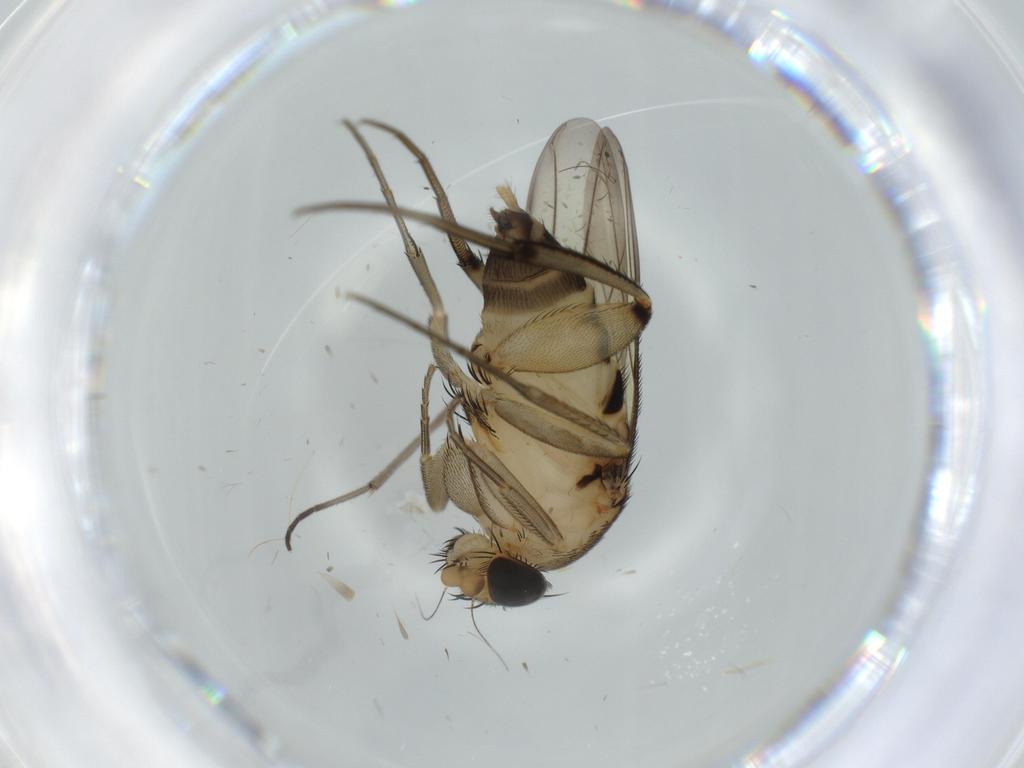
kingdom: Animalia
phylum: Arthropoda
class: Insecta
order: Diptera
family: Phoridae
